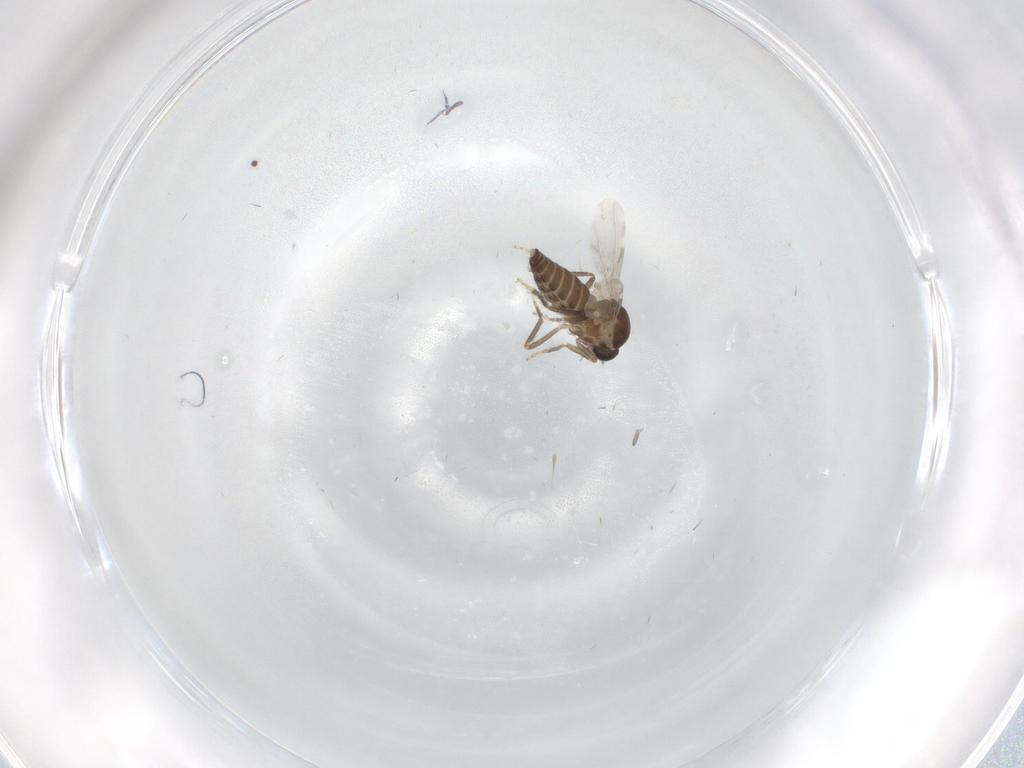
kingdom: Animalia
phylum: Arthropoda
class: Insecta
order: Diptera
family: Ceratopogonidae
